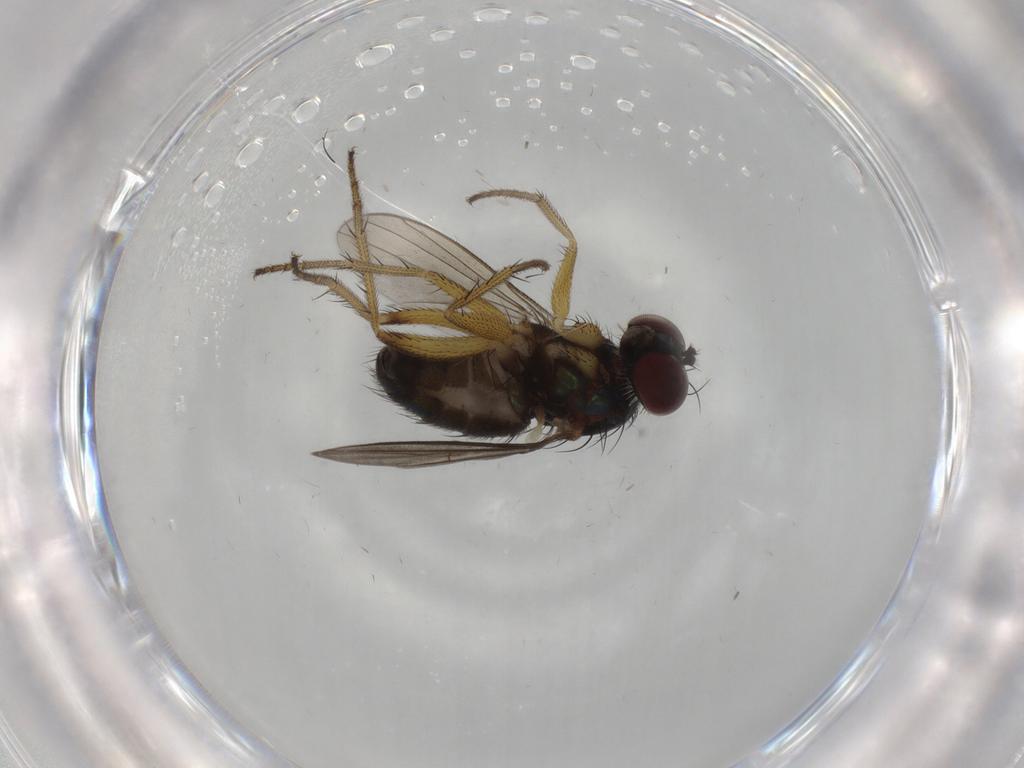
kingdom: Animalia
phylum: Arthropoda
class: Insecta
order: Diptera
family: Dolichopodidae
